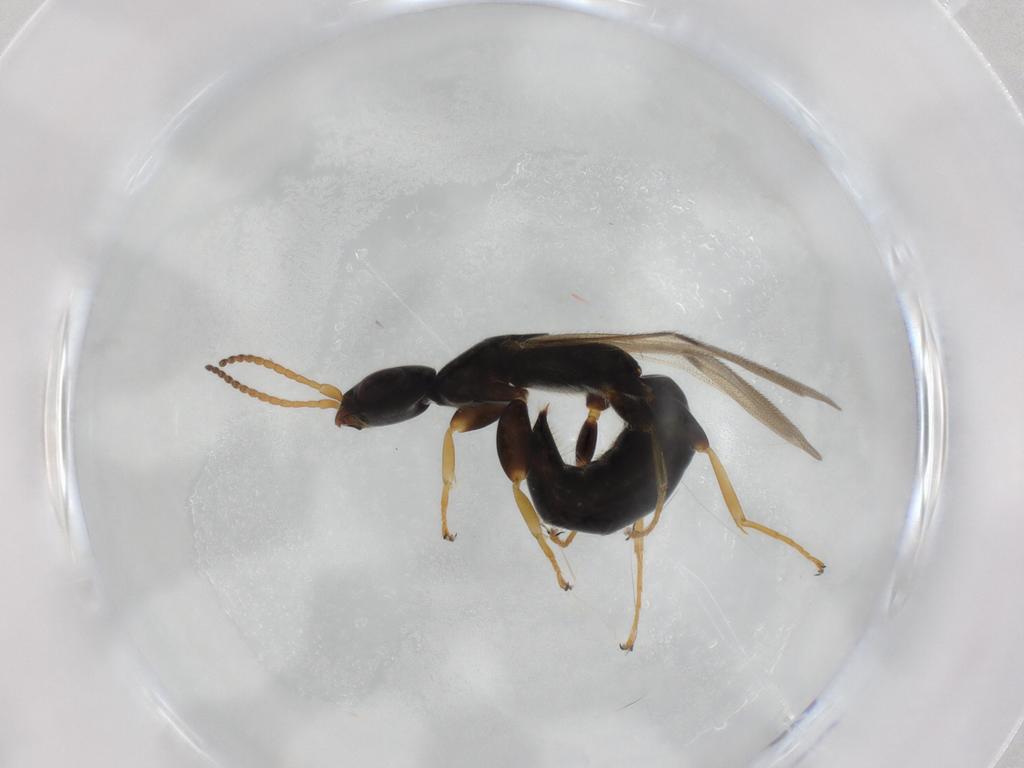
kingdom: Animalia
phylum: Arthropoda
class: Insecta
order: Hymenoptera
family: Bethylidae
